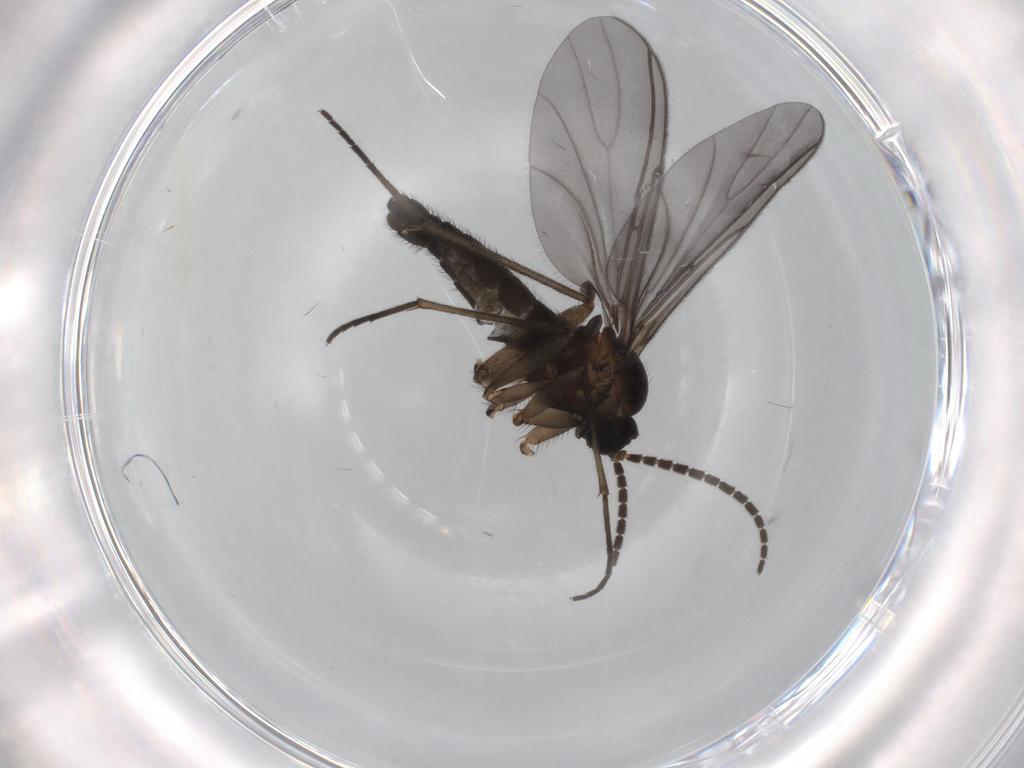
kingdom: Animalia
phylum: Arthropoda
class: Insecta
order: Diptera
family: Sciaridae
